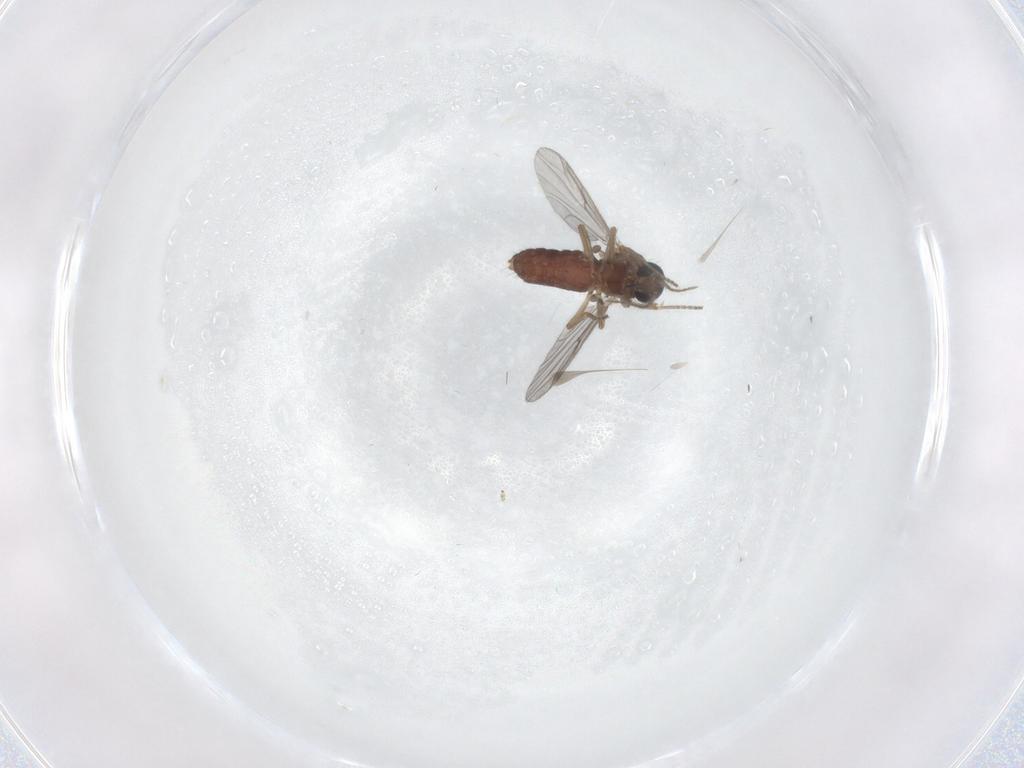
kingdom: Animalia
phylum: Arthropoda
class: Insecta
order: Diptera
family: Ceratopogonidae
